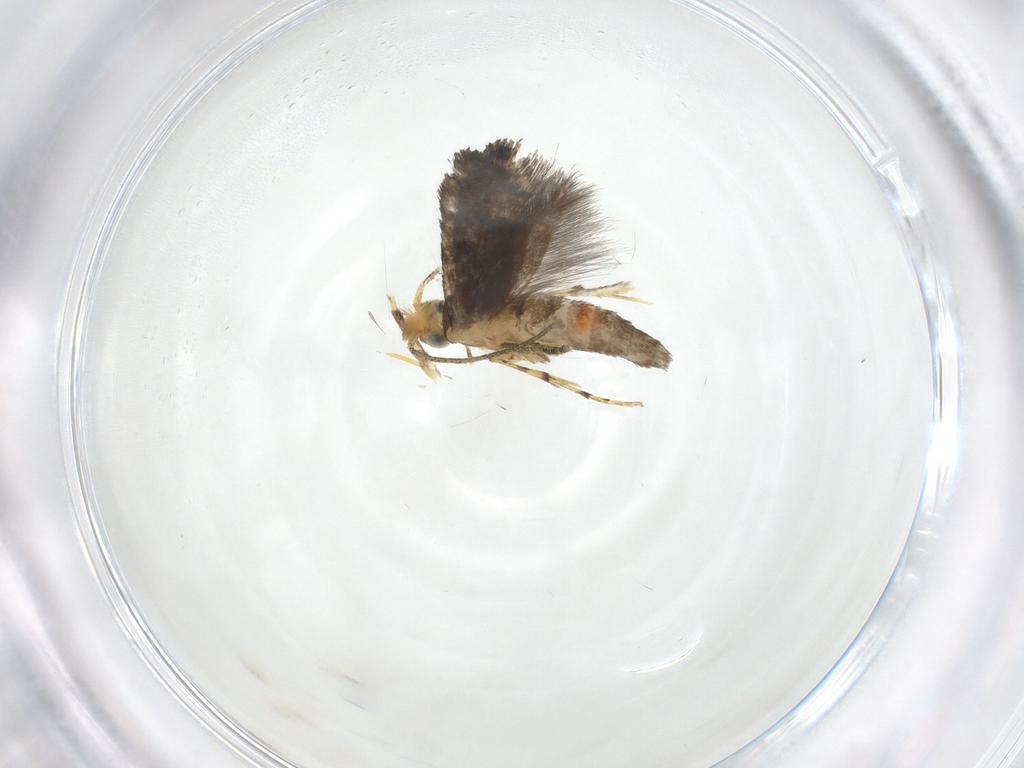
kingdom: Animalia
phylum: Arthropoda
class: Insecta
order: Lepidoptera
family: Argyresthiidae
